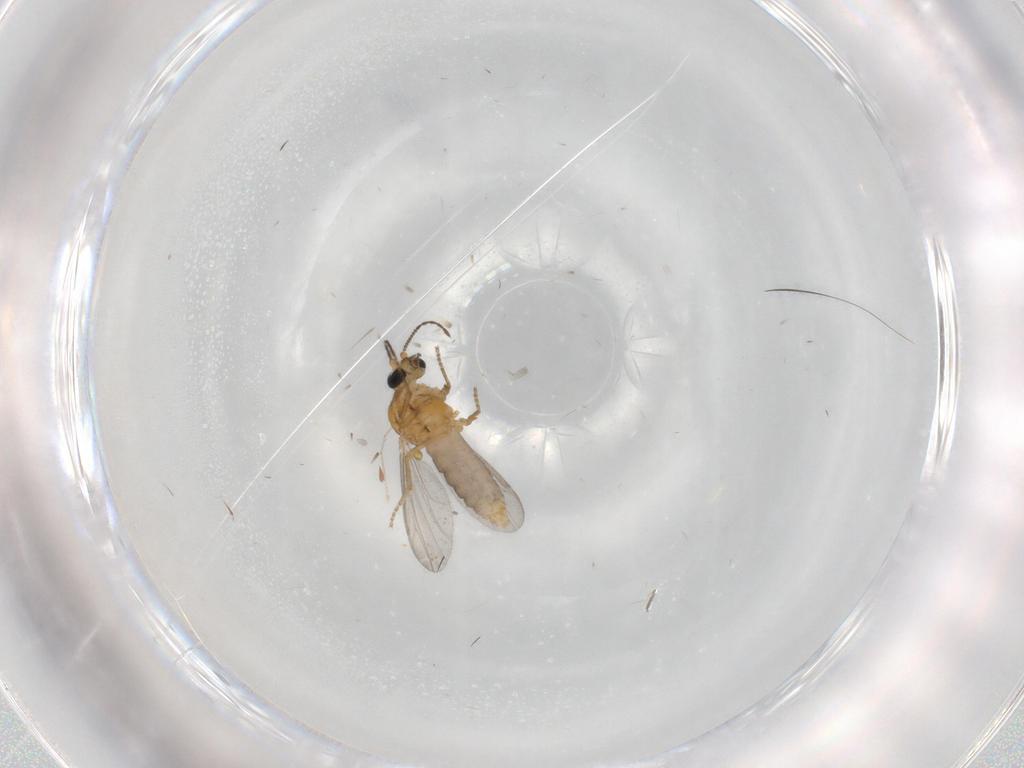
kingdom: Animalia
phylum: Arthropoda
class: Insecta
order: Diptera
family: Ceratopogonidae
